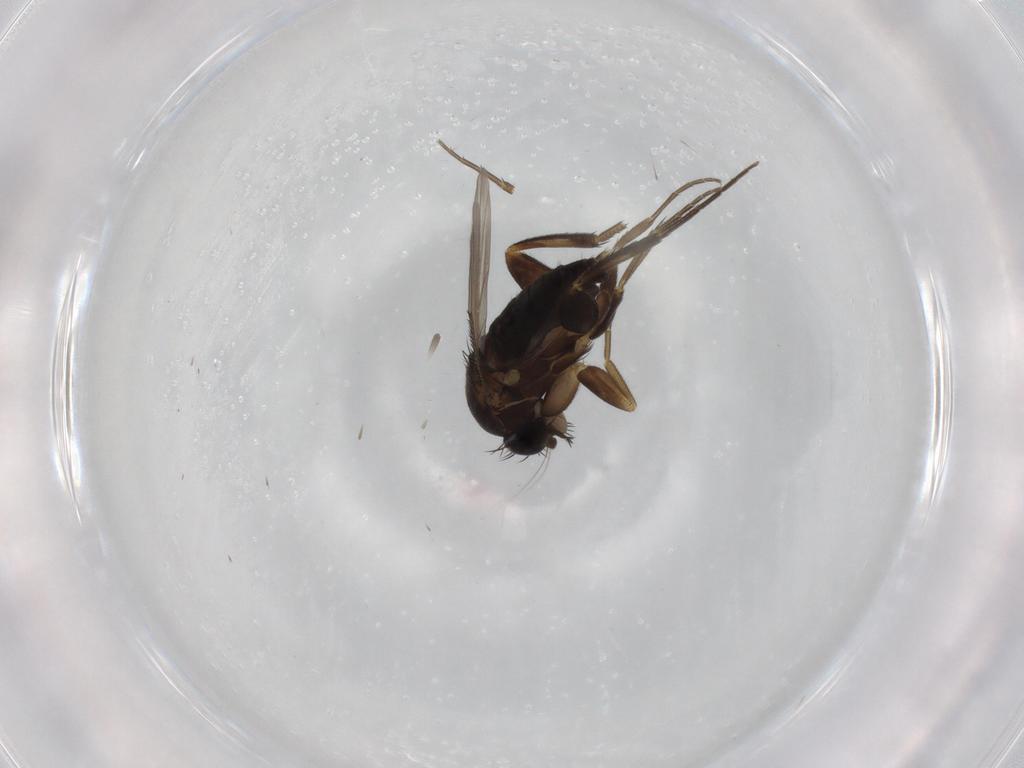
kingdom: Animalia
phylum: Arthropoda
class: Insecta
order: Diptera
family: Phoridae
